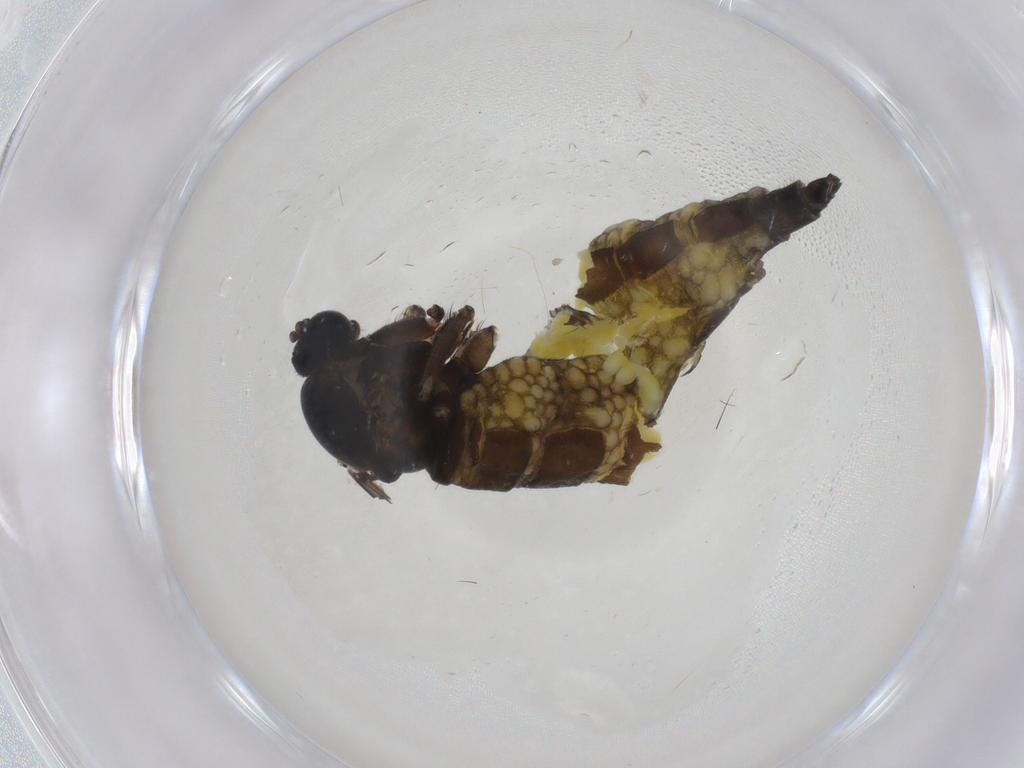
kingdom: Animalia
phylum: Arthropoda
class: Insecta
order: Diptera
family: Sciaridae
